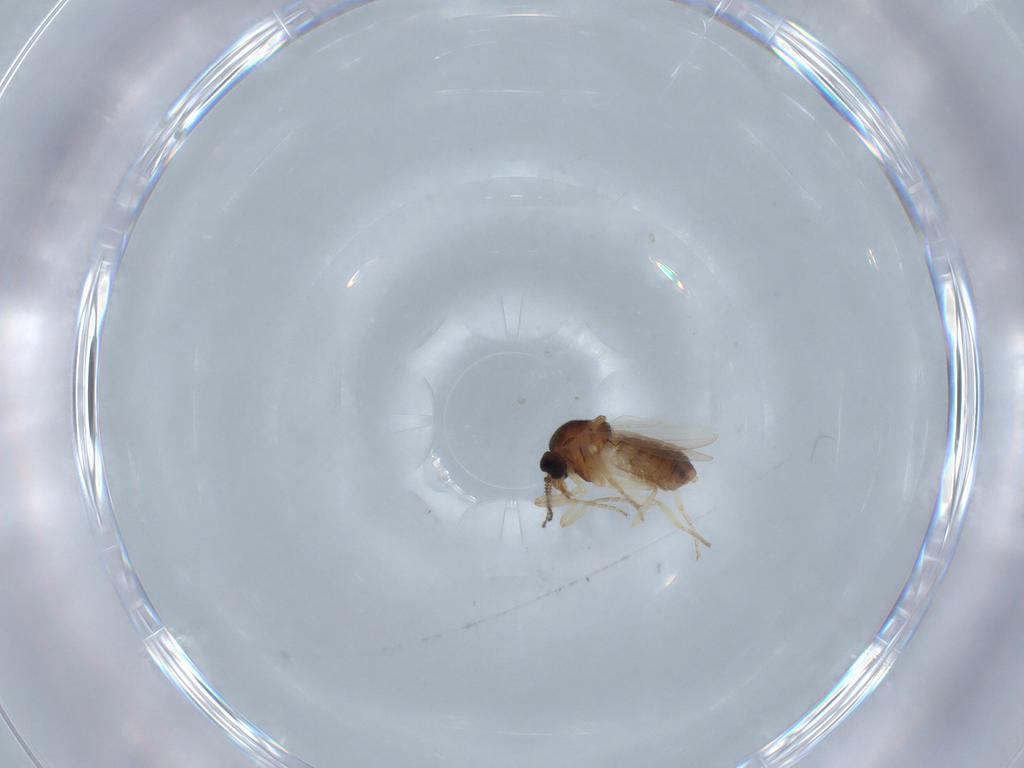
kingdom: Animalia
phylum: Arthropoda
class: Insecta
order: Diptera
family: Ceratopogonidae
